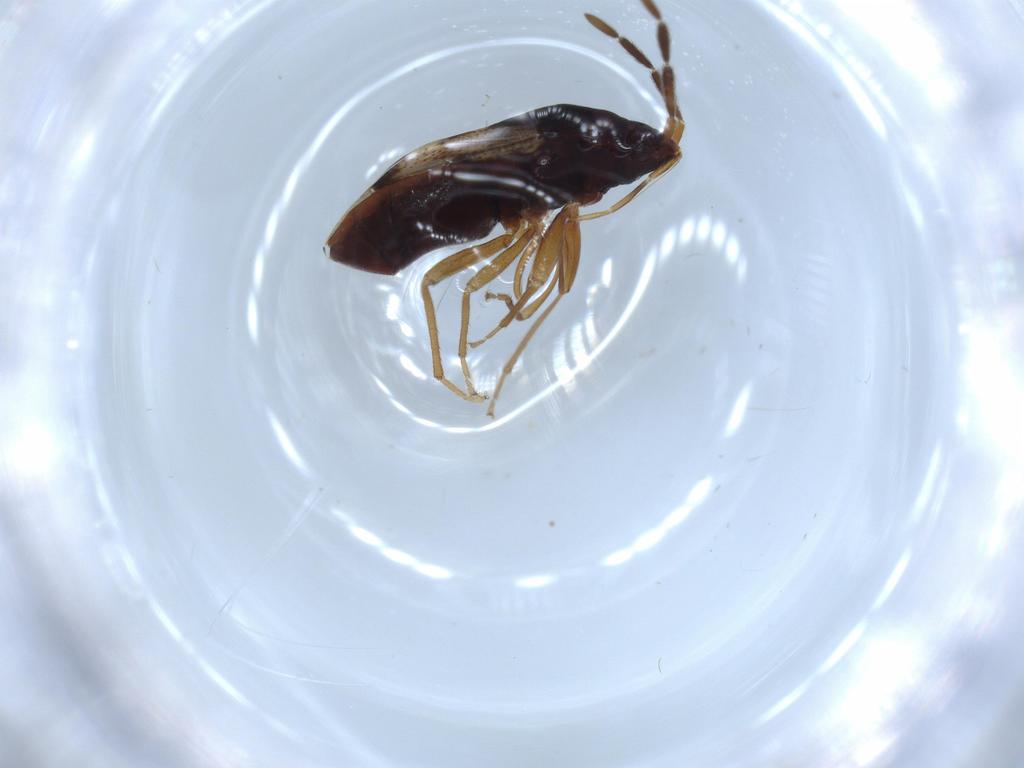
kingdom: Animalia
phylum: Arthropoda
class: Insecta
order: Hemiptera
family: Rhyparochromidae
